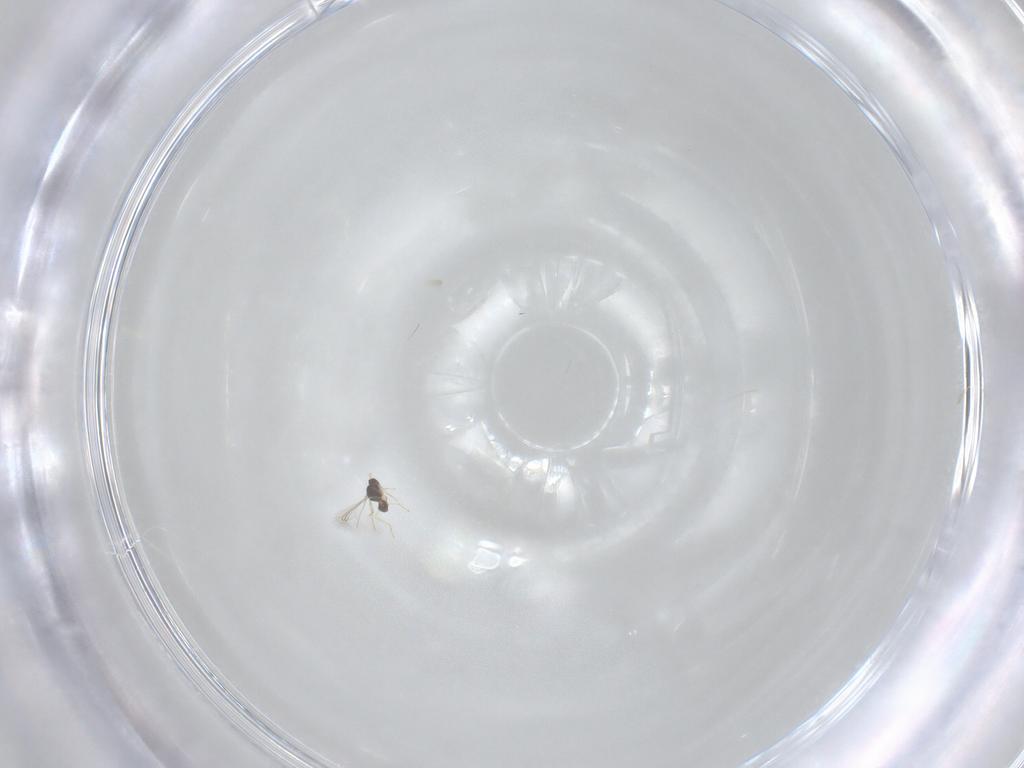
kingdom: Animalia
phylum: Arthropoda
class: Insecta
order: Hymenoptera
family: Mymaridae
